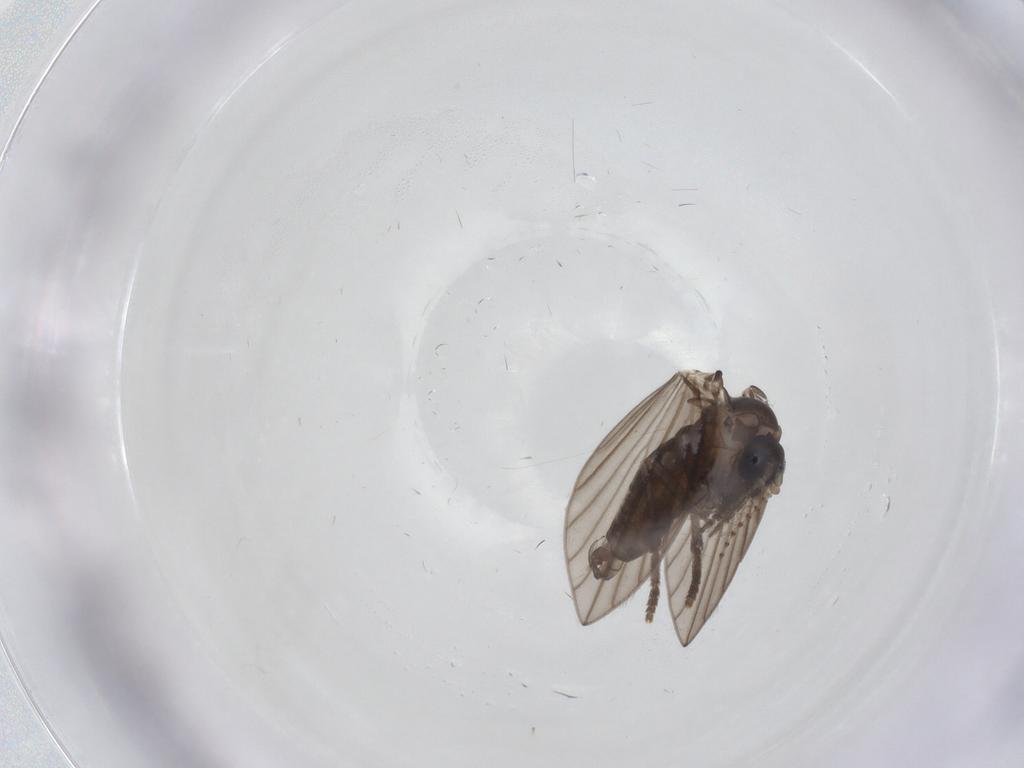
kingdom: Animalia
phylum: Arthropoda
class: Insecta
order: Diptera
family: Psychodidae
